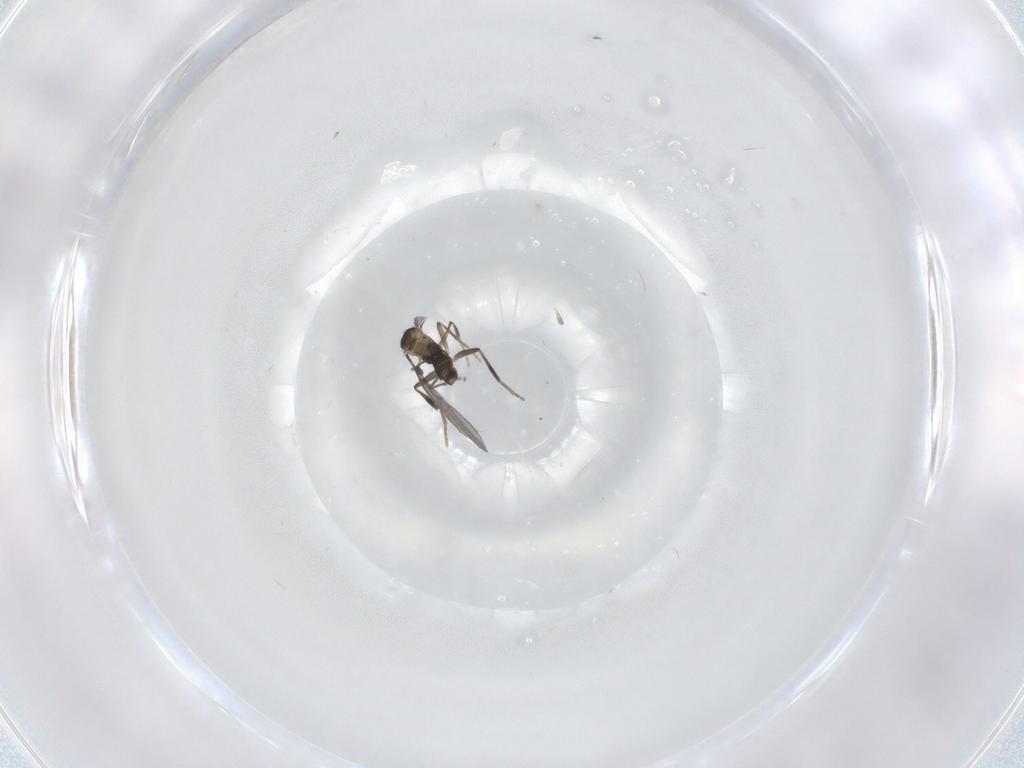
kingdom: Animalia
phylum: Arthropoda
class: Insecta
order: Diptera
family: Phoridae
